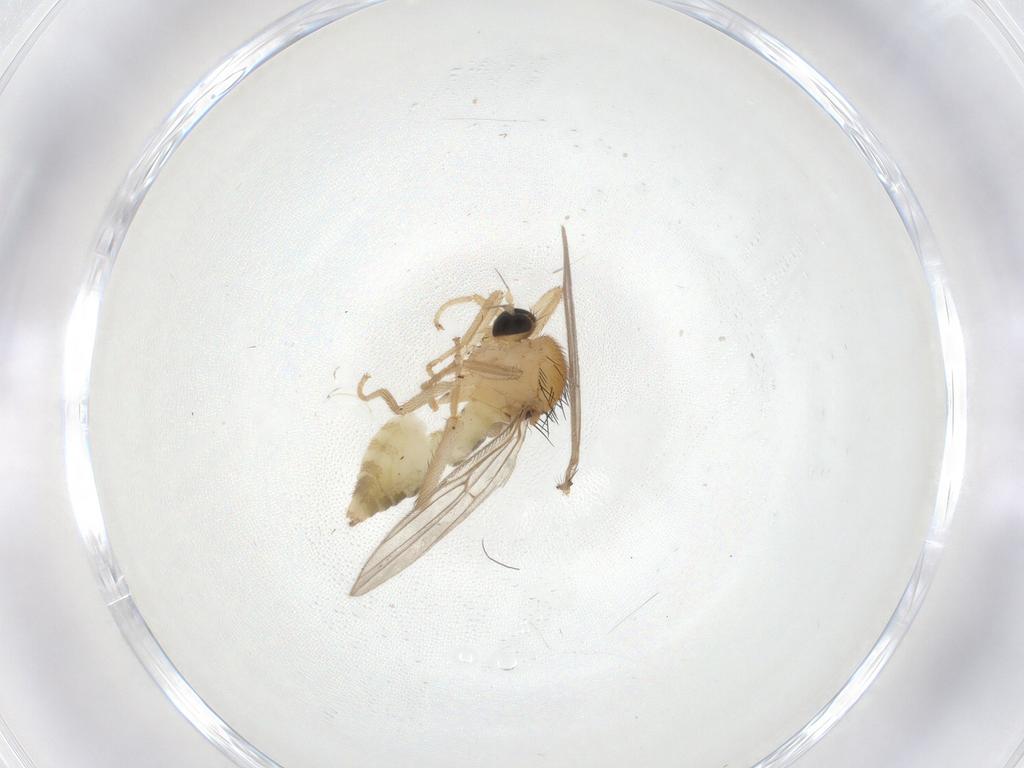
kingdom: Animalia
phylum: Arthropoda
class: Insecta
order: Diptera
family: Hybotidae
